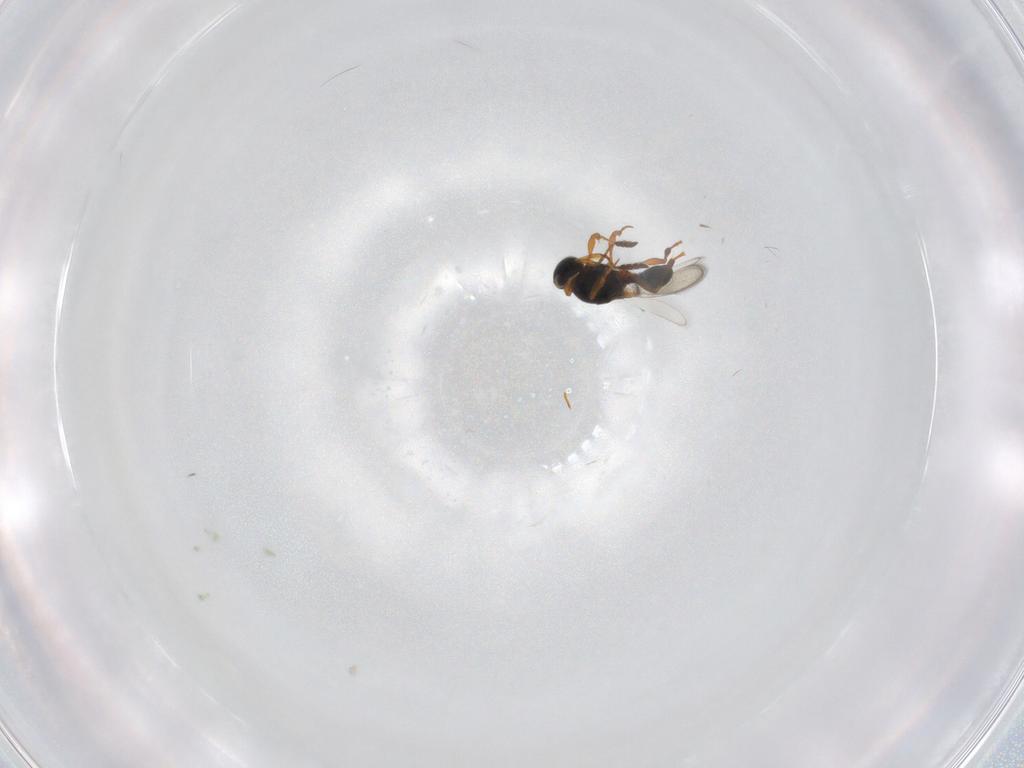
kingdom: Animalia
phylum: Arthropoda
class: Insecta
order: Hymenoptera
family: Platygastridae
